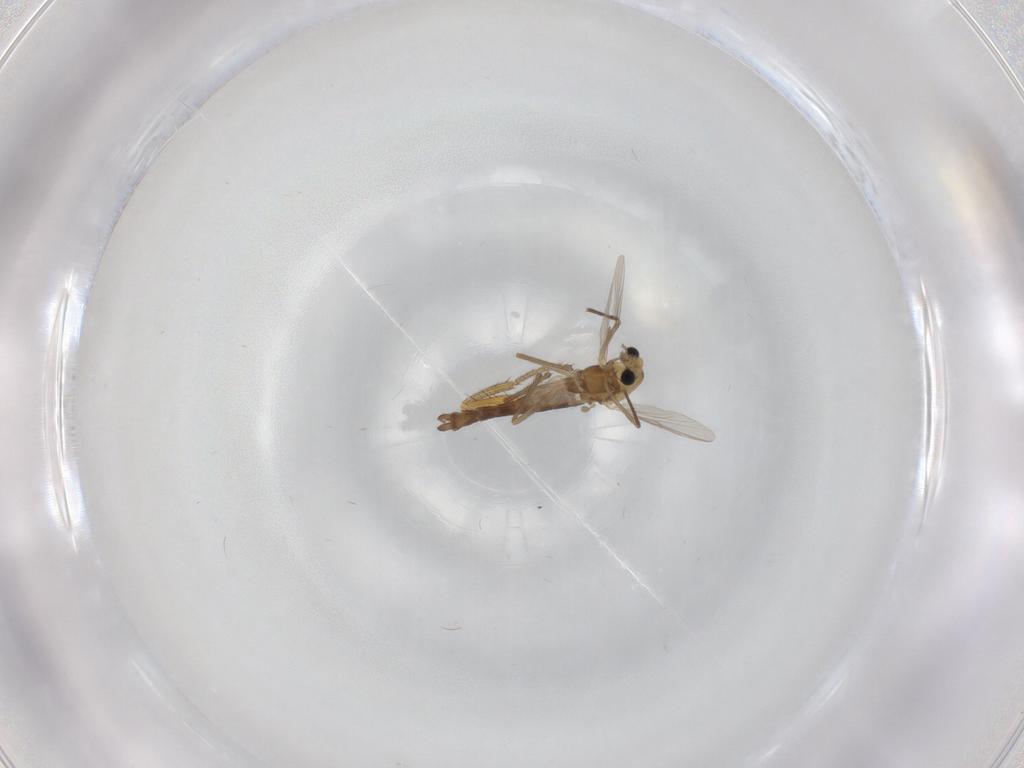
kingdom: Animalia
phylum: Arthropoda
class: Insecta
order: Diptera
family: Chironomidae
